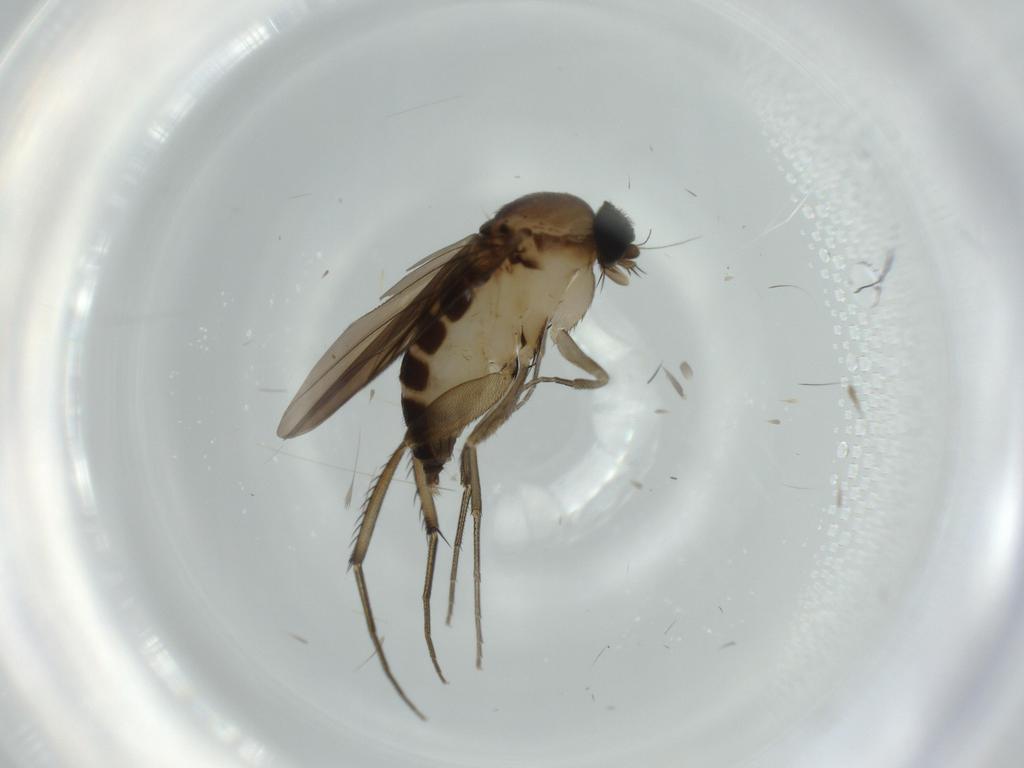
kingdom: Animalia
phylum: Arthropoda
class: Insecta
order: Diptera
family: Phoridae
